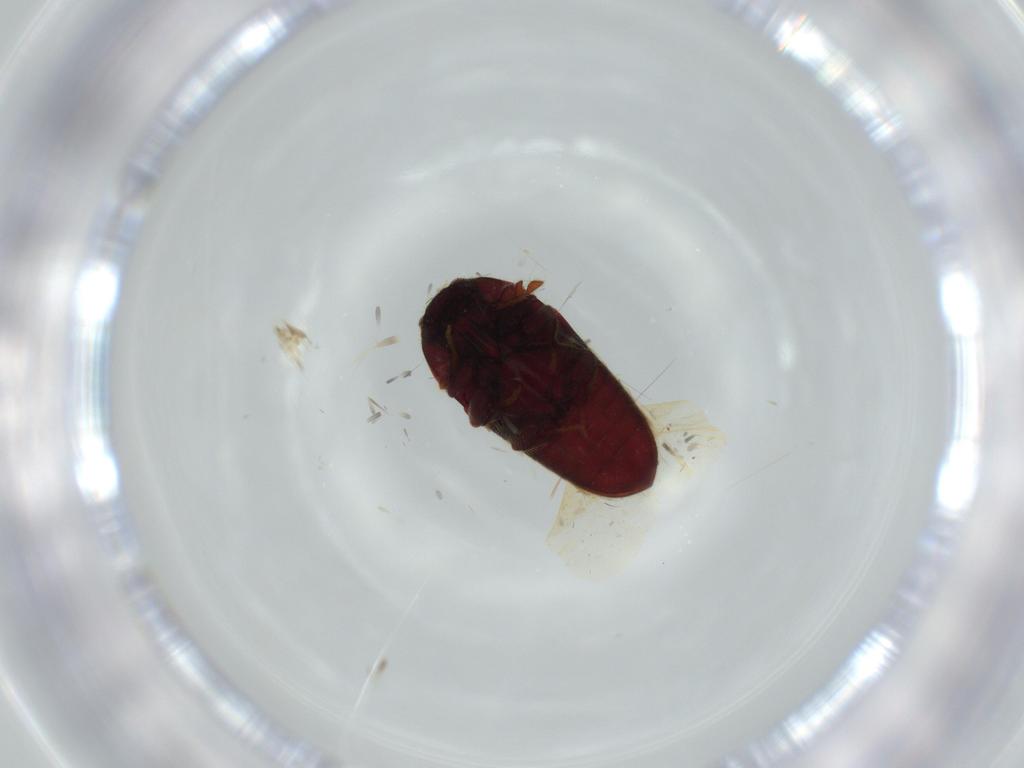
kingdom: Animalia
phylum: Arthropoda
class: Insecta
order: Coleoptera
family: Throscidae
